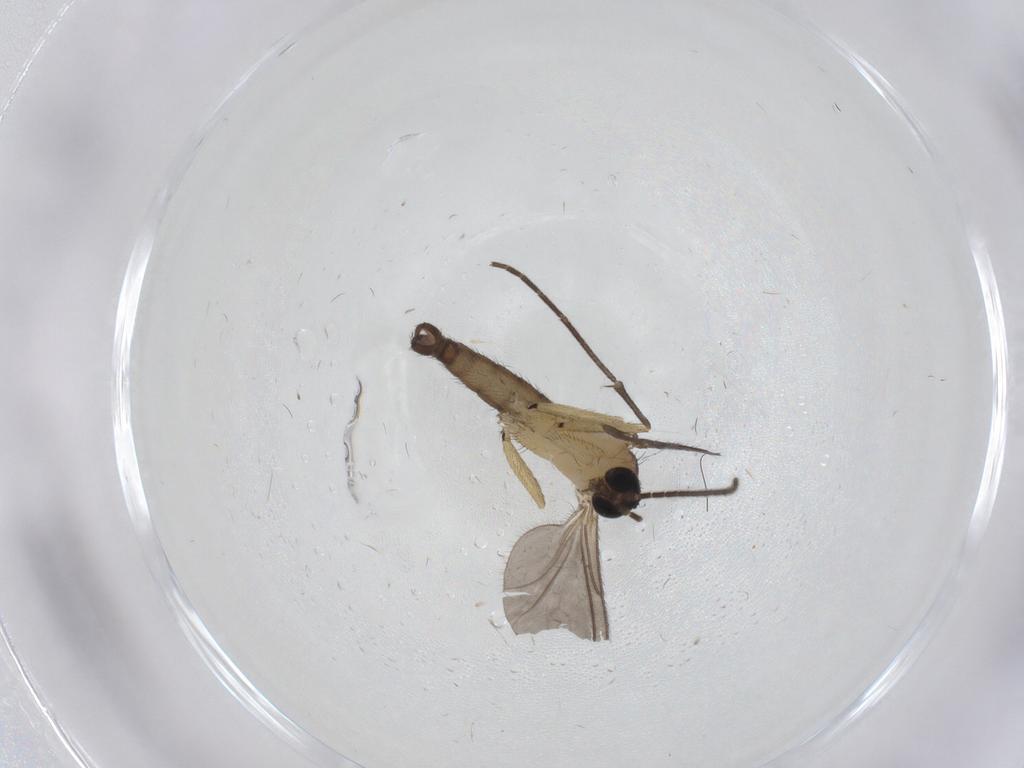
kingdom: Animalia
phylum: Arthropoda
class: Insecta
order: Diptera
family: Sciaridae
